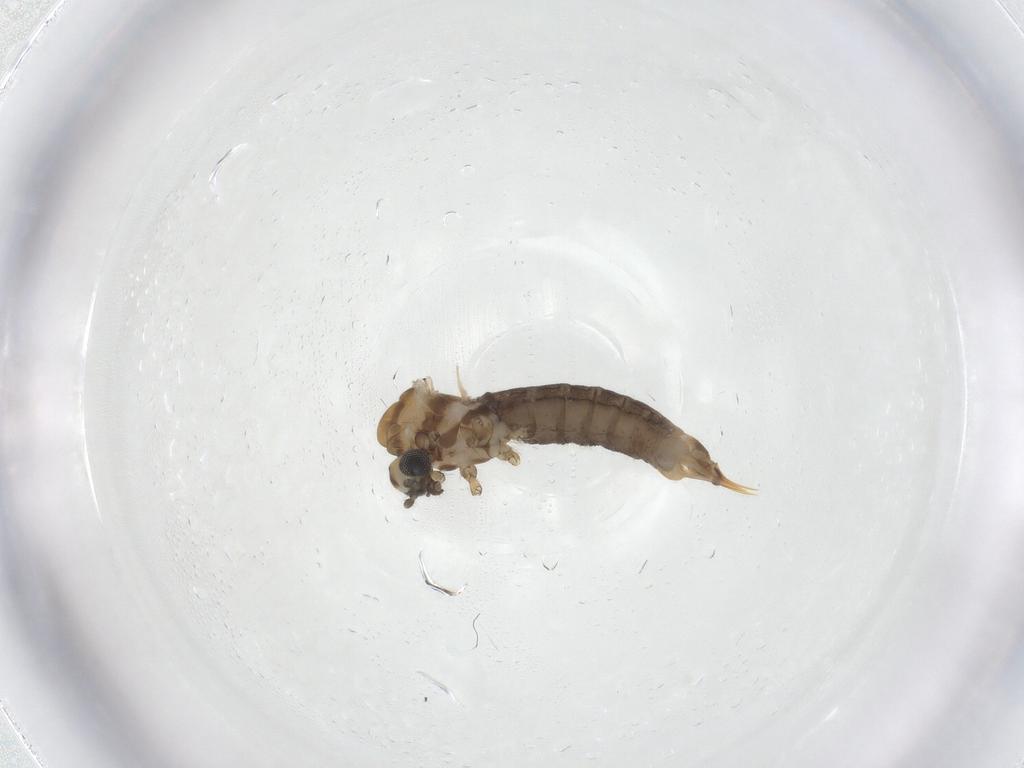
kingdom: Animalia
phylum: Arthropoda
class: Insecta
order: Diptera
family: Limoniidae
